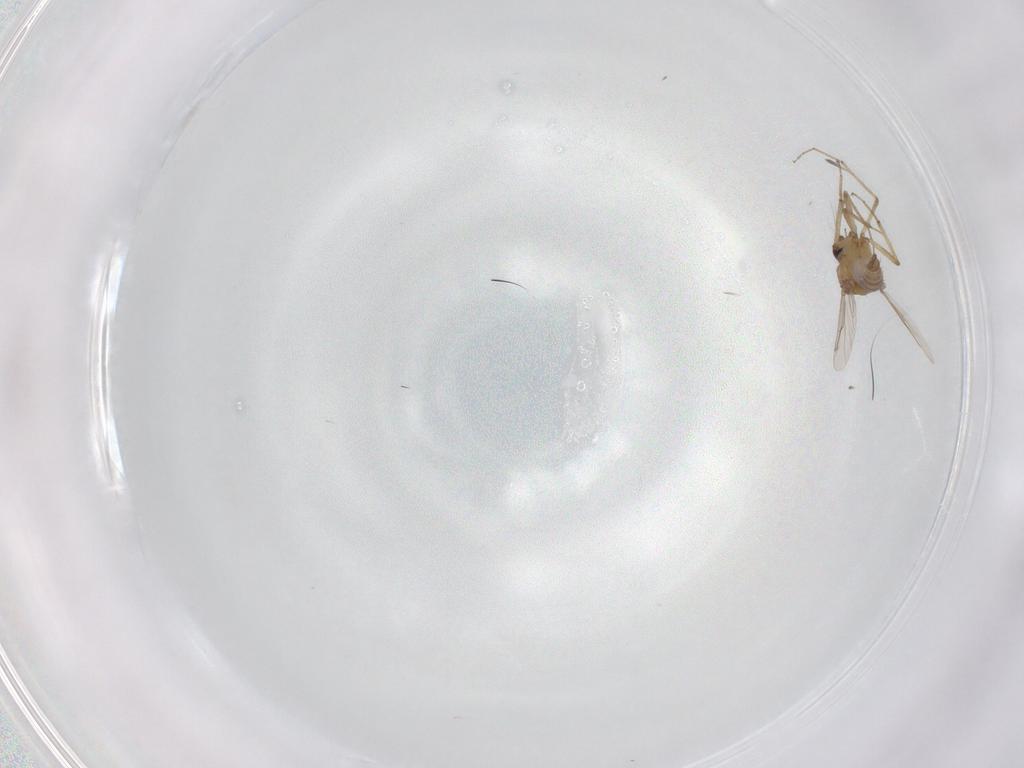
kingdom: Animalia
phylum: Arthropoda
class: Insecta
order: Diptera
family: Ceratopogonidae
